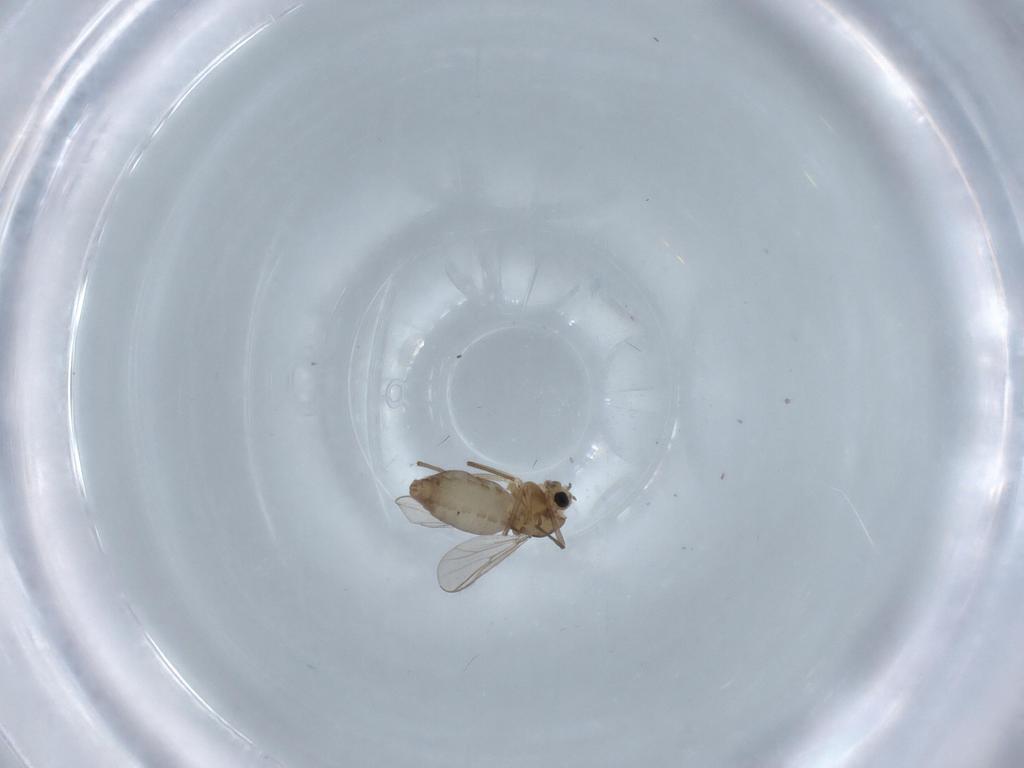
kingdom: Animalia
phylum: Arthropoda
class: Insecta
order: Diptera
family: Chironomidae
